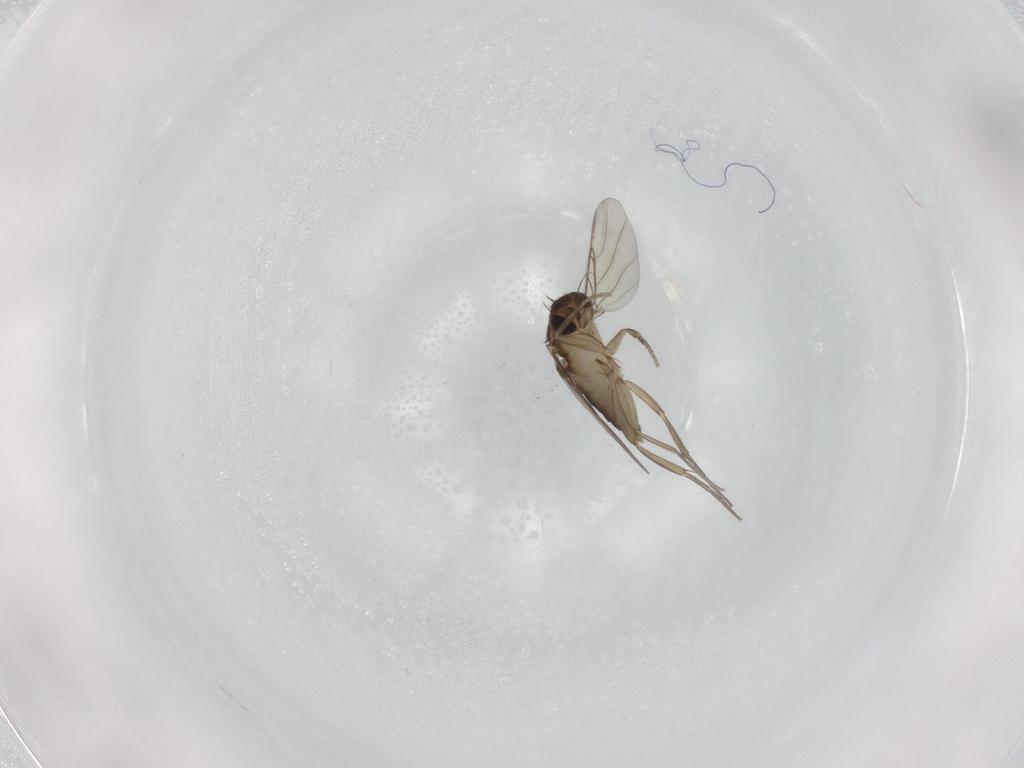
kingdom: Animalia
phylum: Arthropoda
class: Insecta
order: Diptera
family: Phoridae
